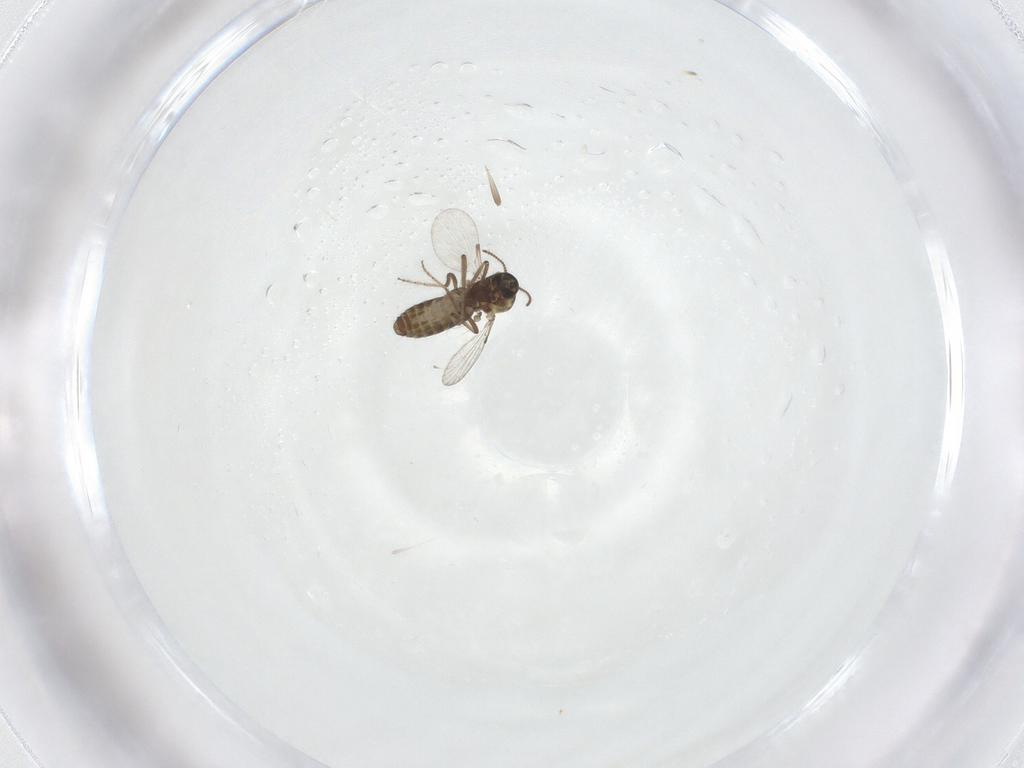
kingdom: Animalia
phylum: Arthropoda
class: Insecta
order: Diptera
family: Ceratopogonidae
